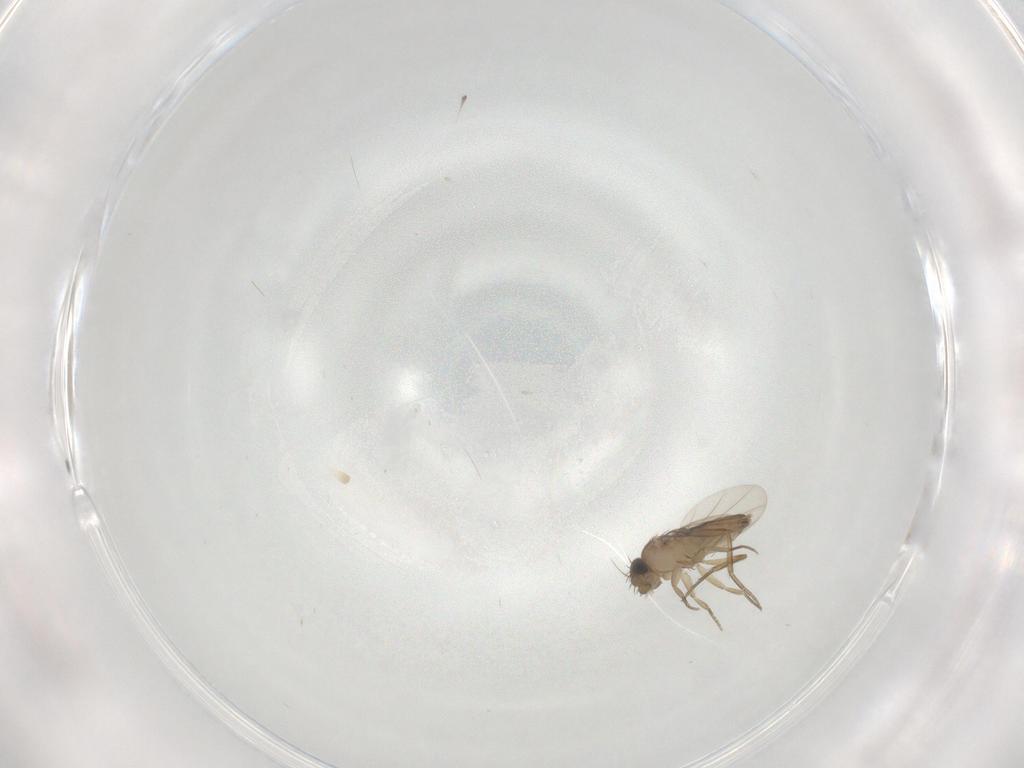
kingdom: Animalia
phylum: Arthropoda
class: Insecta
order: Diptera
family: Phoridae
